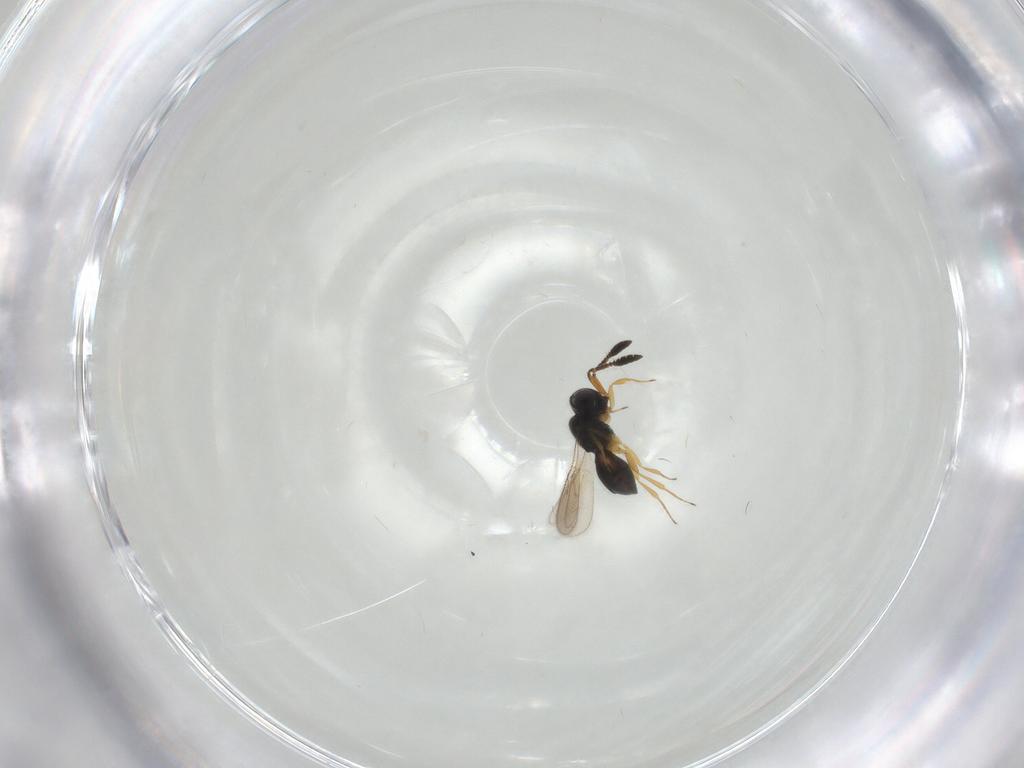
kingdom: Animalia
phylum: Arthropoda
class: Insecta
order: Hymenoptera
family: Scelionidae
